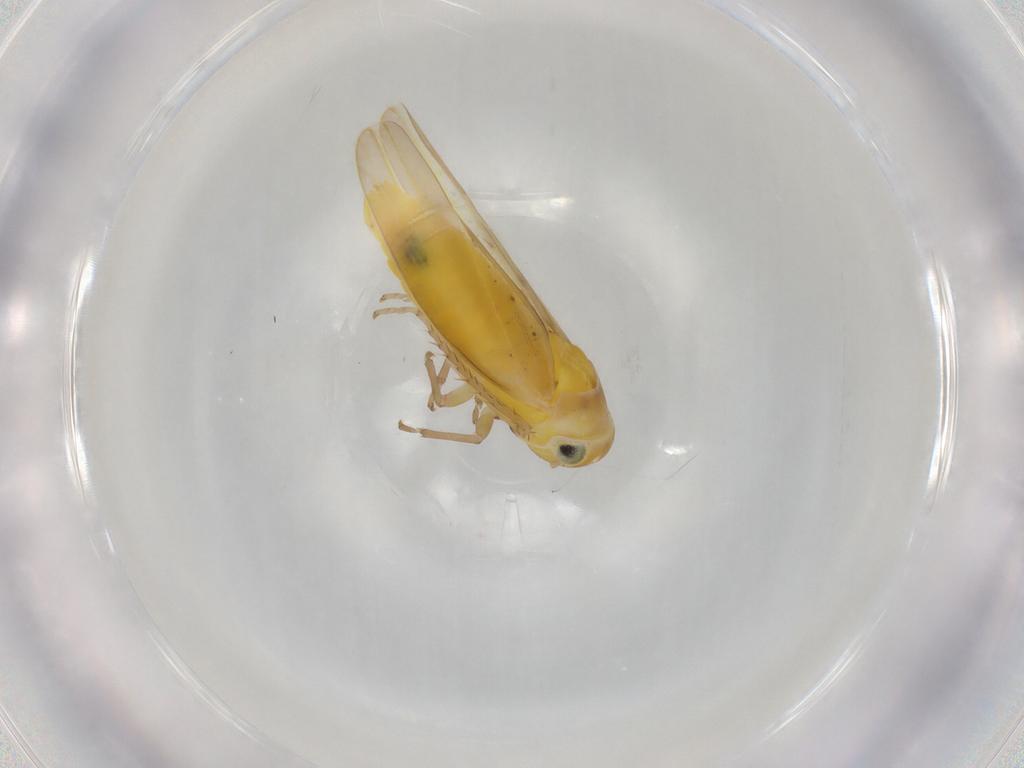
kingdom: Animalia
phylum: Arthropoda
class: Insecta
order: Hemiptera
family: Cicadellidae
